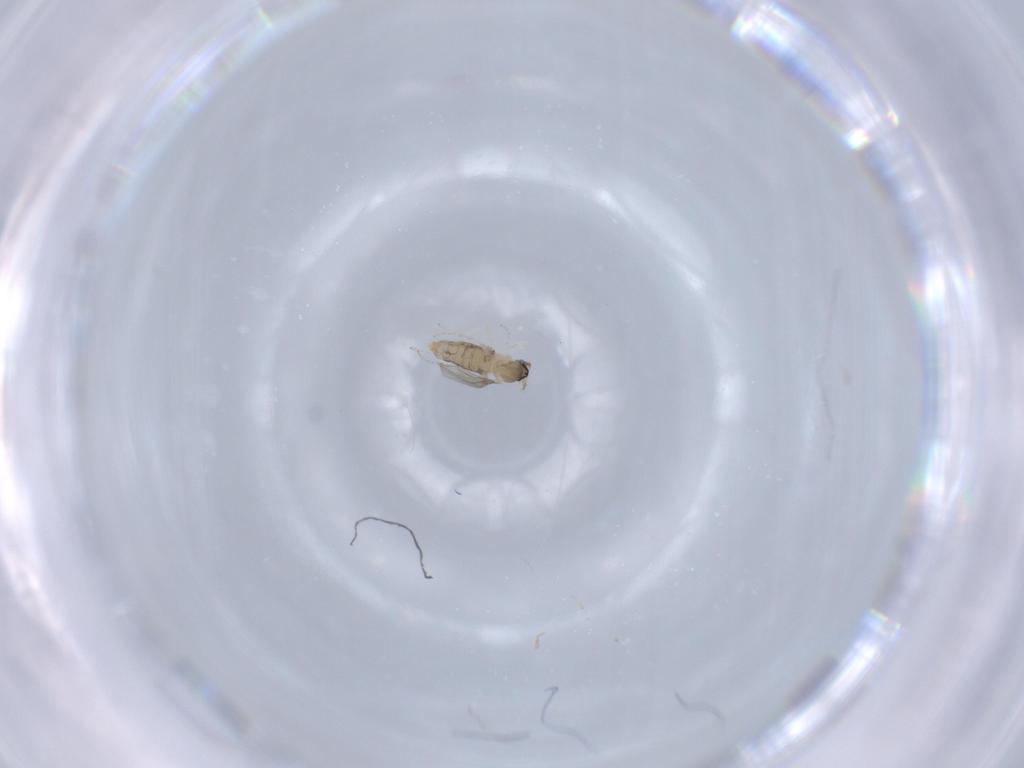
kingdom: Animalia
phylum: Arthropoda
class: Insecta
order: Diptera
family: Cecidomyiidae
